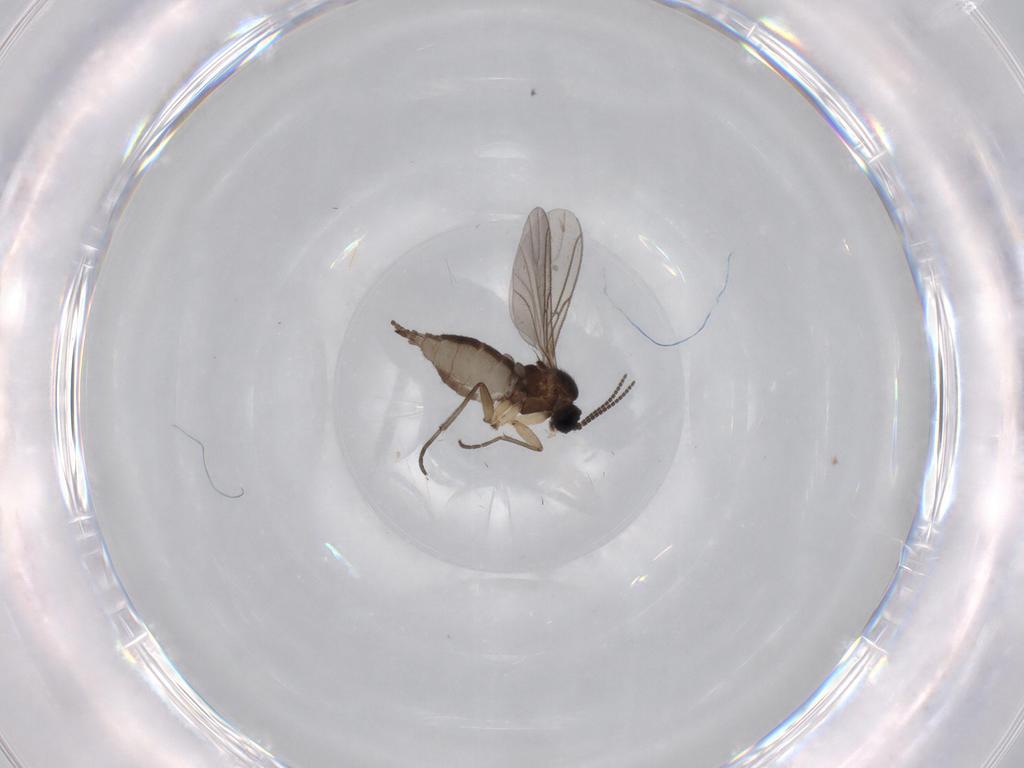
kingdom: Animalia
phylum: Arthropoda
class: Insecta
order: Diptera
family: Sciaridae
